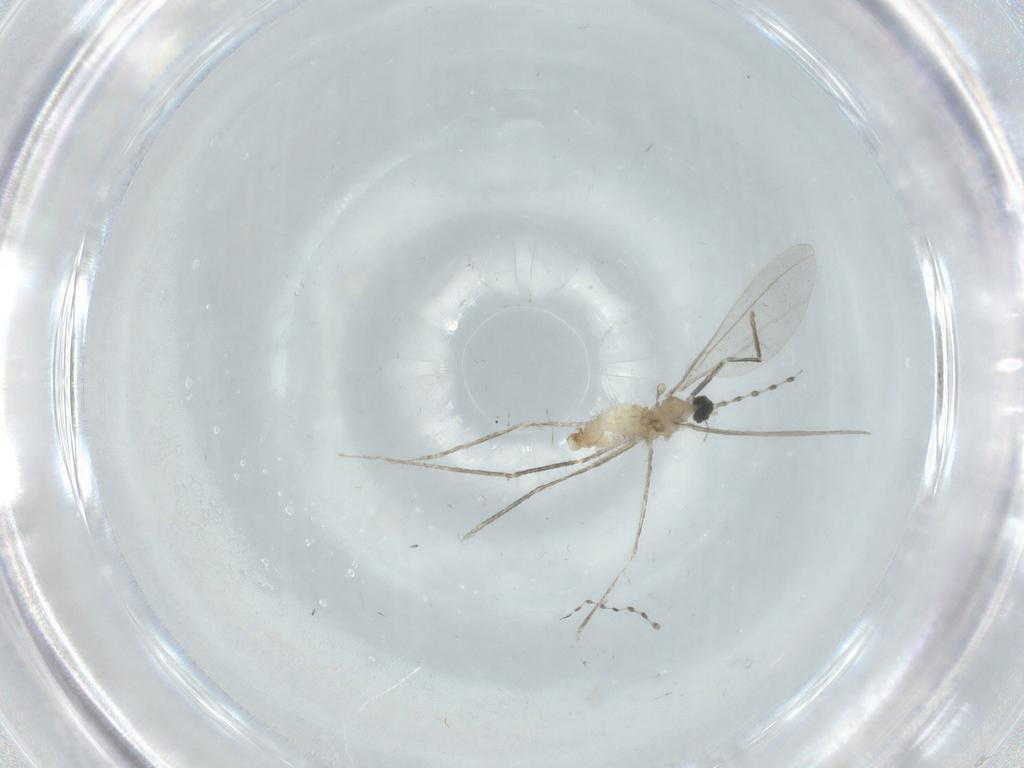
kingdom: Animalia
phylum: Arthropoda
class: Insecta
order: Diptera
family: Cecidomyiidae
